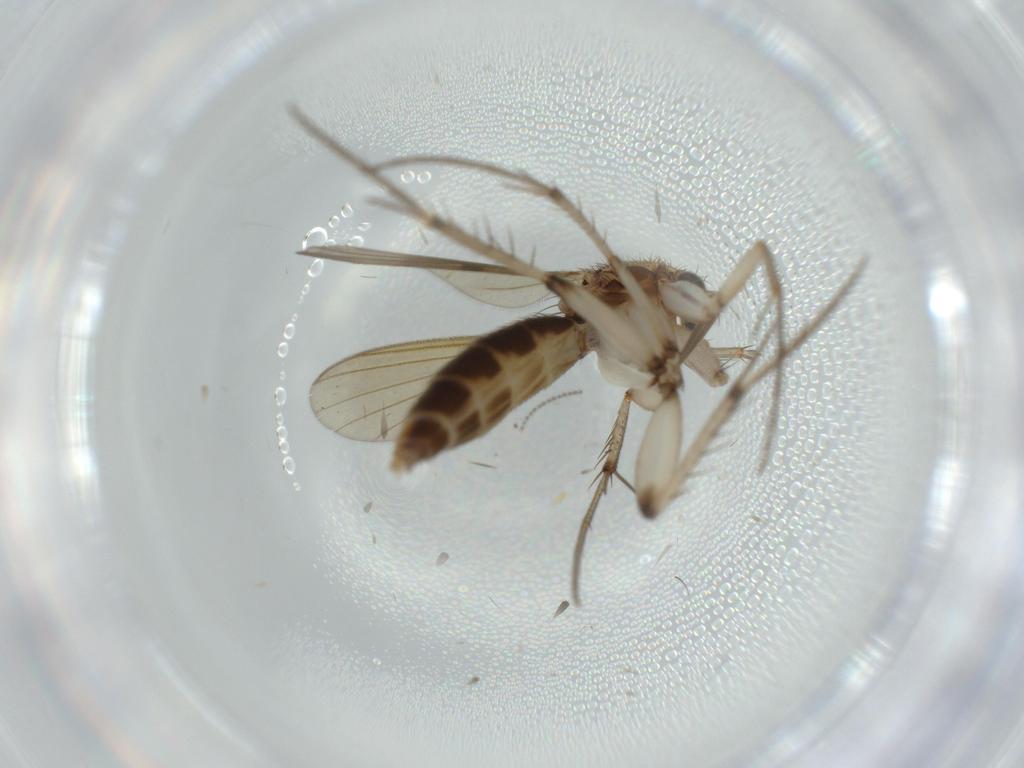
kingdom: Animalia
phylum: Arthropoda
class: Insecta
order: Diptera
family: Mycetophilidae
